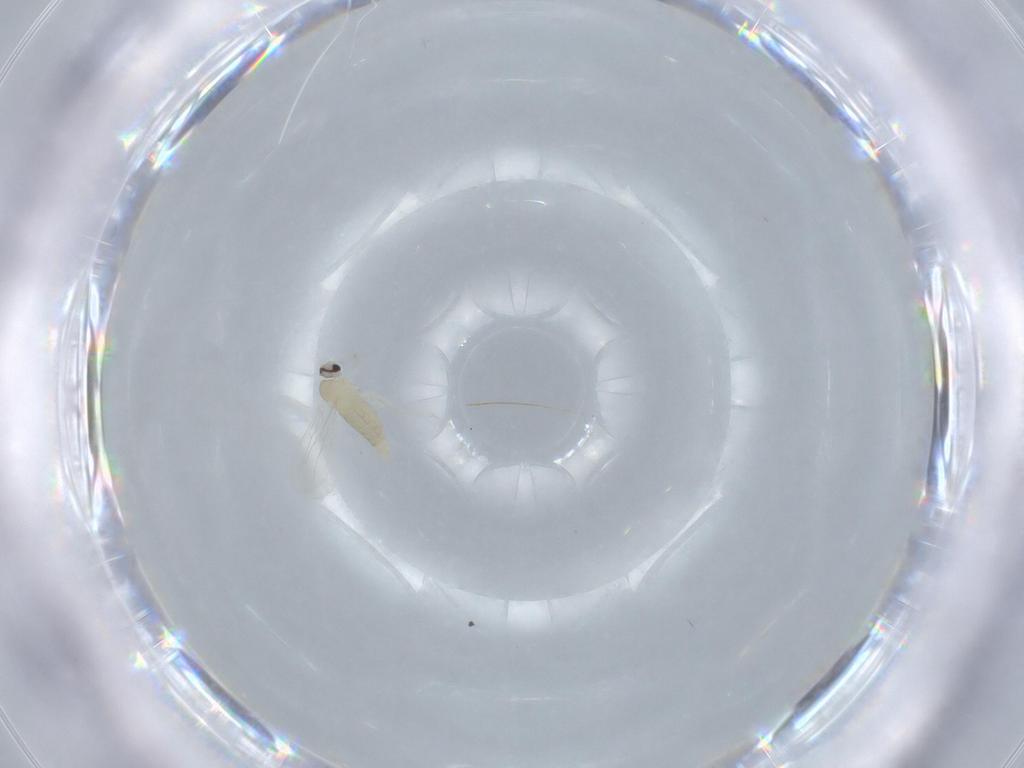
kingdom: Animalia
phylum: Arthropoda
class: Insecta
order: Diptera
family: Cecidomyiidae
